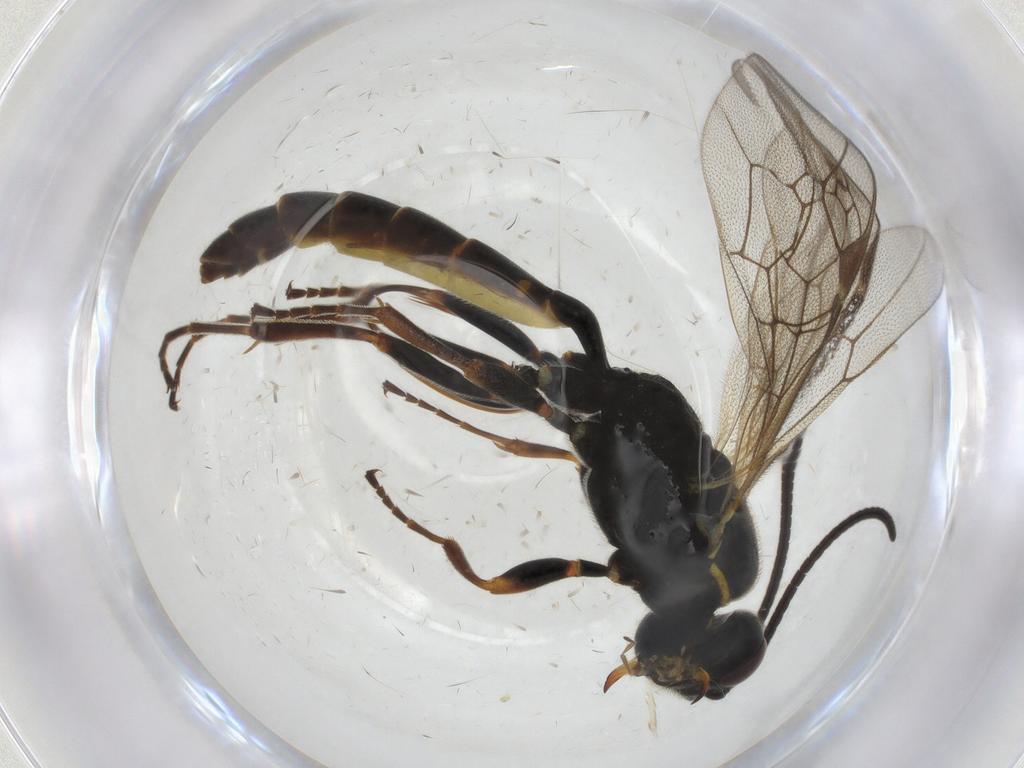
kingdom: Animalia
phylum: Arthropoda
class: Insecta
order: Hymenoptera
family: Ichneumonidae
